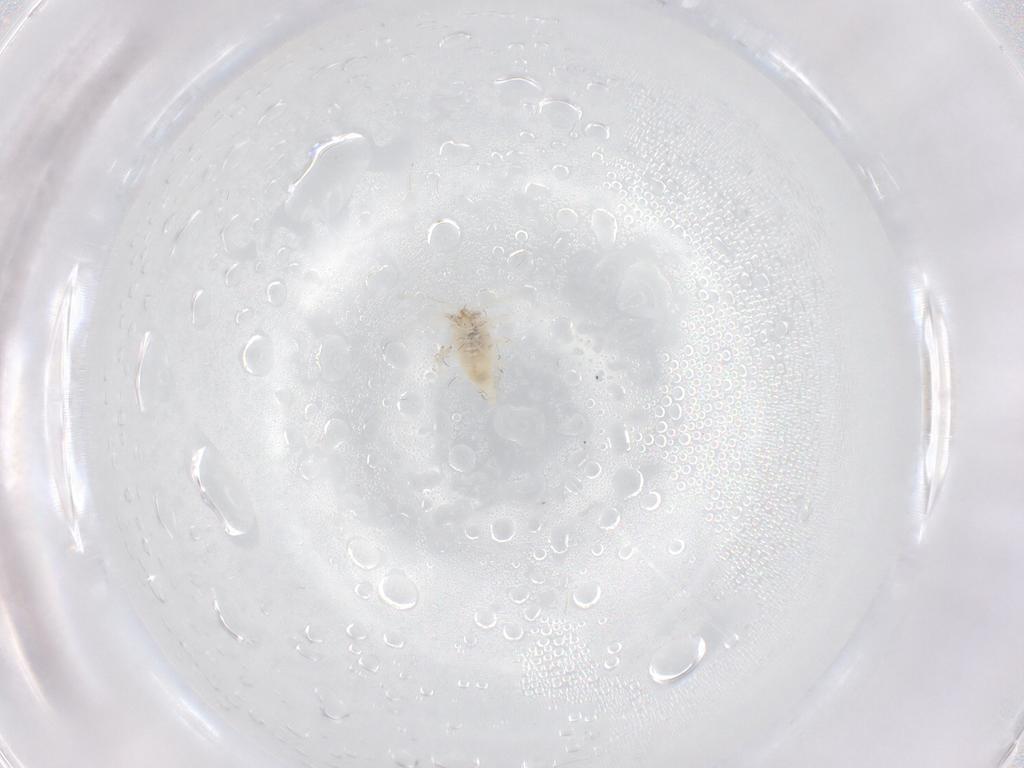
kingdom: Animalia
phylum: Arthropoda
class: Insecta
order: Neuroptera
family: Coniopterygidae
